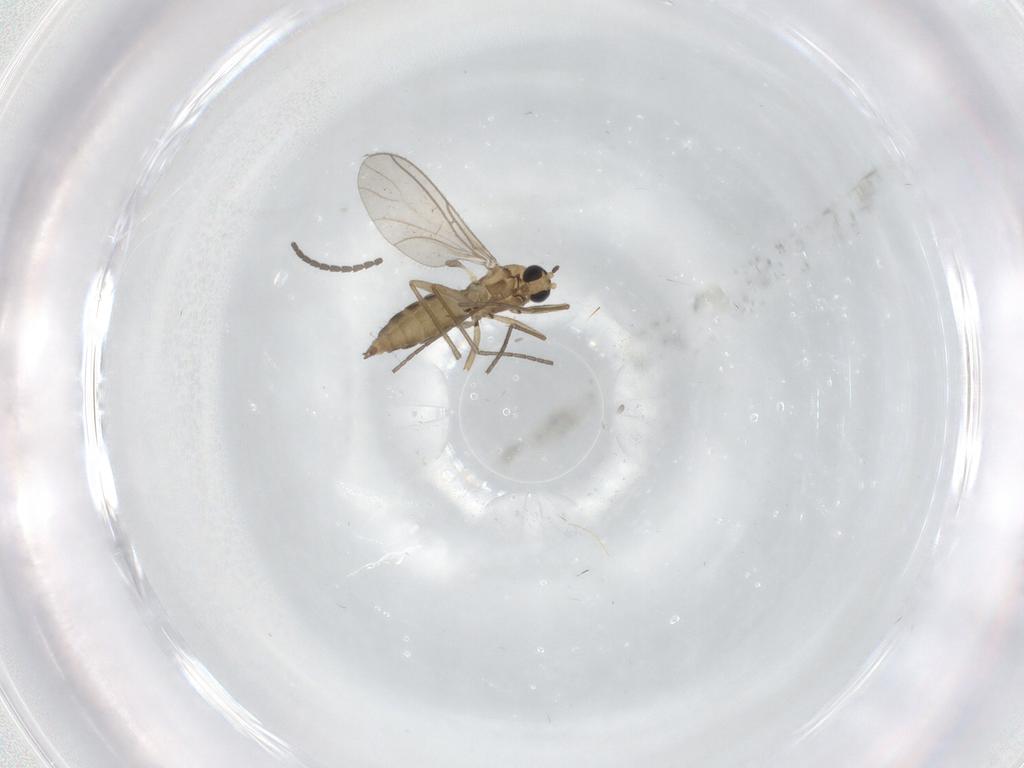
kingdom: Animalia
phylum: Arthropoda
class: Insecta
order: Diptera
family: Sciaridae
